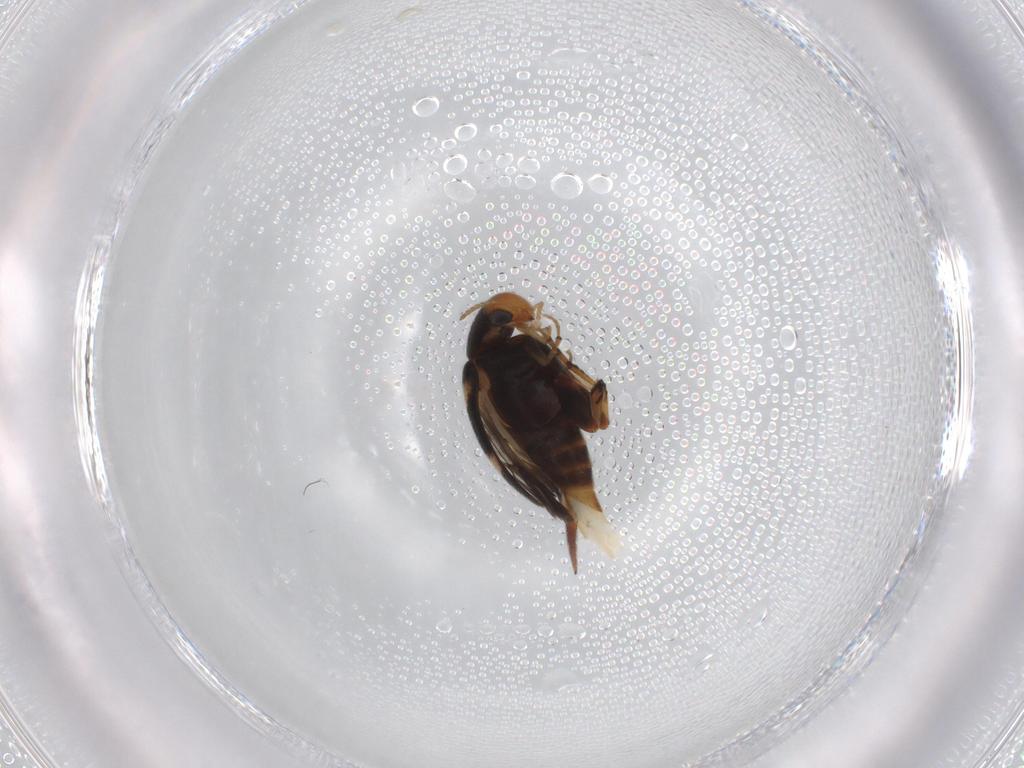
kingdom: Animalia
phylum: Arthropoda
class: Insecta
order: Coleoptera
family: Mordellidae
